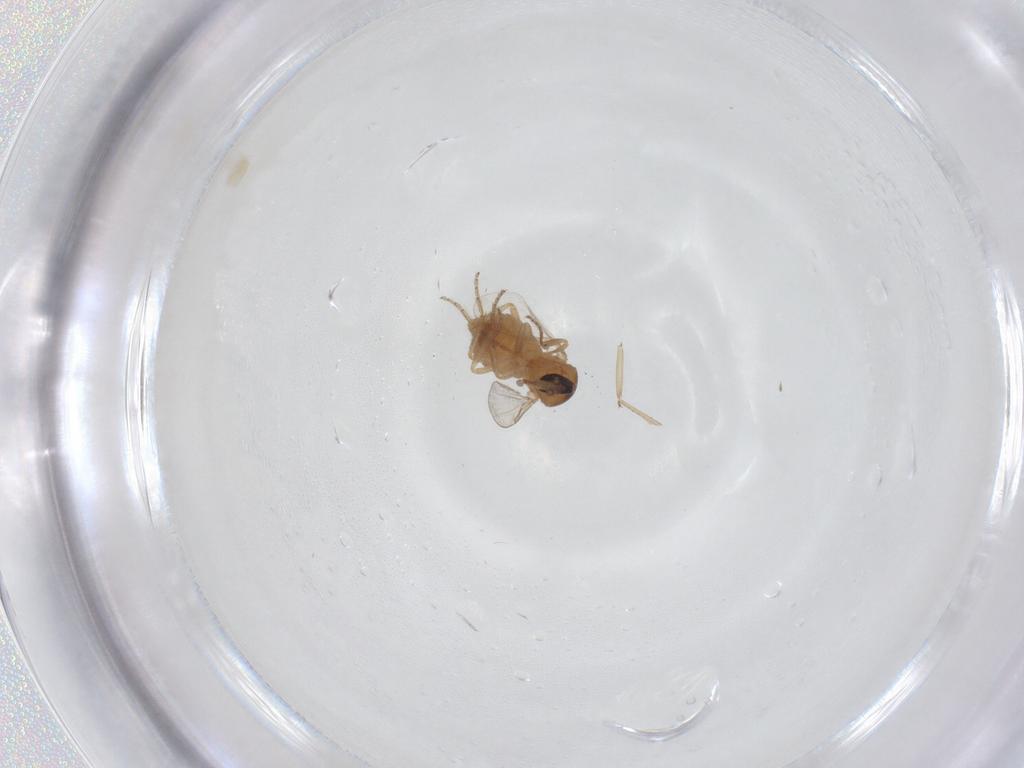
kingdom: Animalia
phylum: Arthropoda
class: Insecta
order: Diptera
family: Ceratopogonidae
